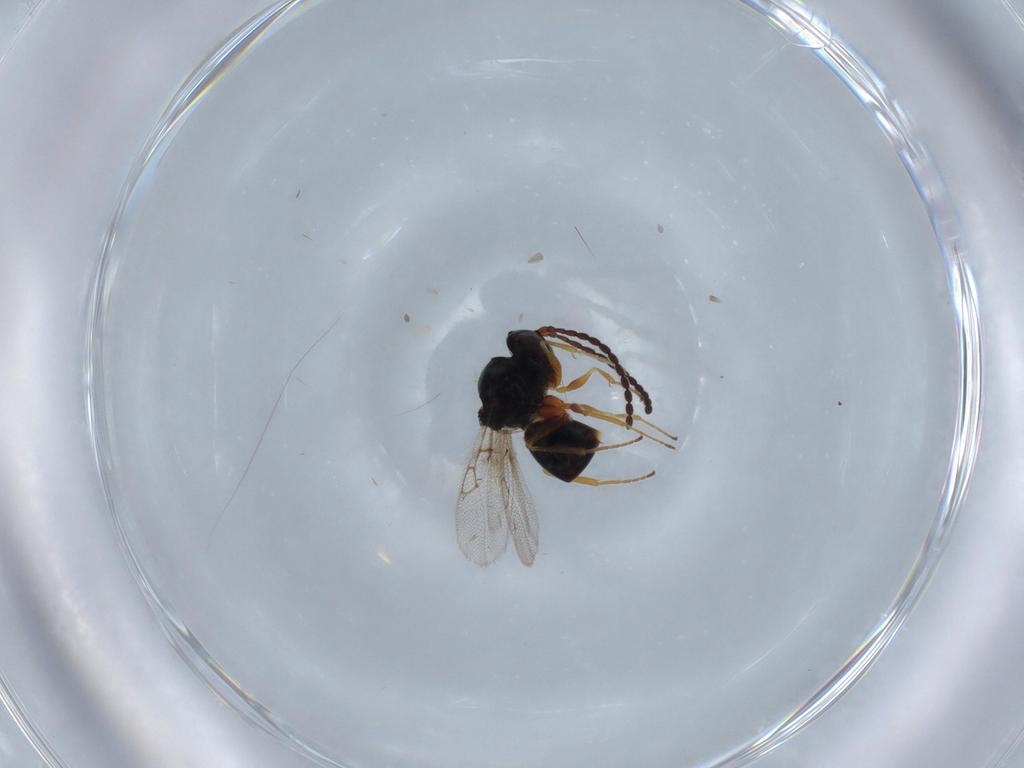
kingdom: Animalia
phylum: Arthropoda
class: Insecta
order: Hymenoptera
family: Figitidae
